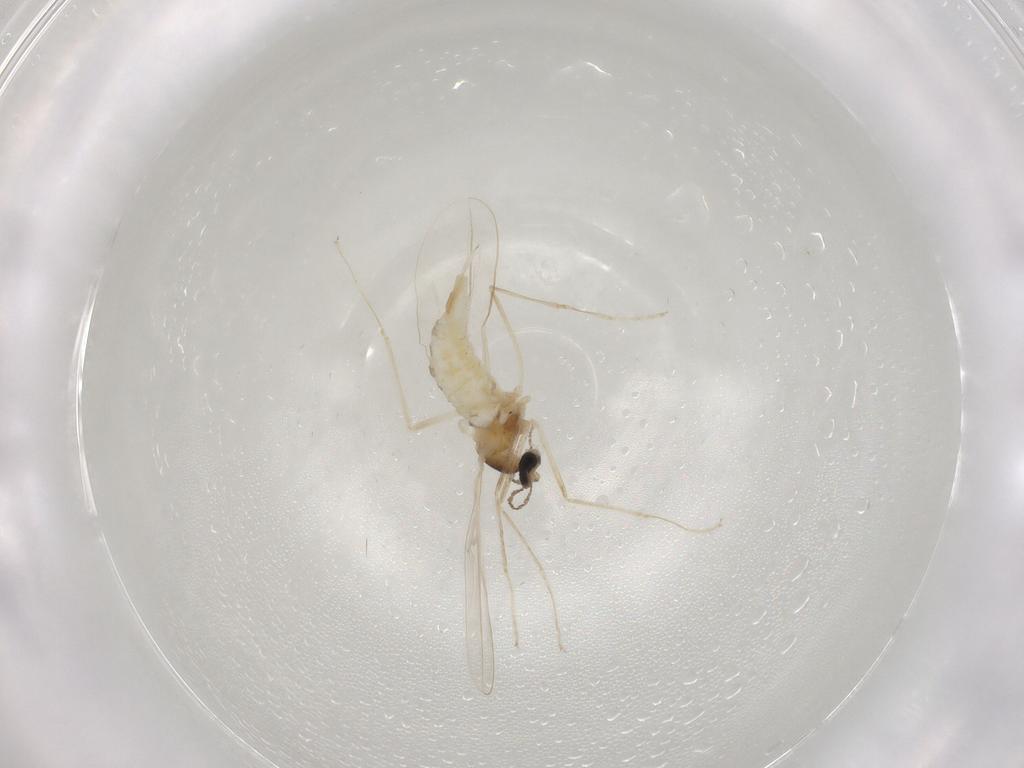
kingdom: Animalia
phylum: Arthropoda
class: Insecta
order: Diptera
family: Cecidomyiidae
